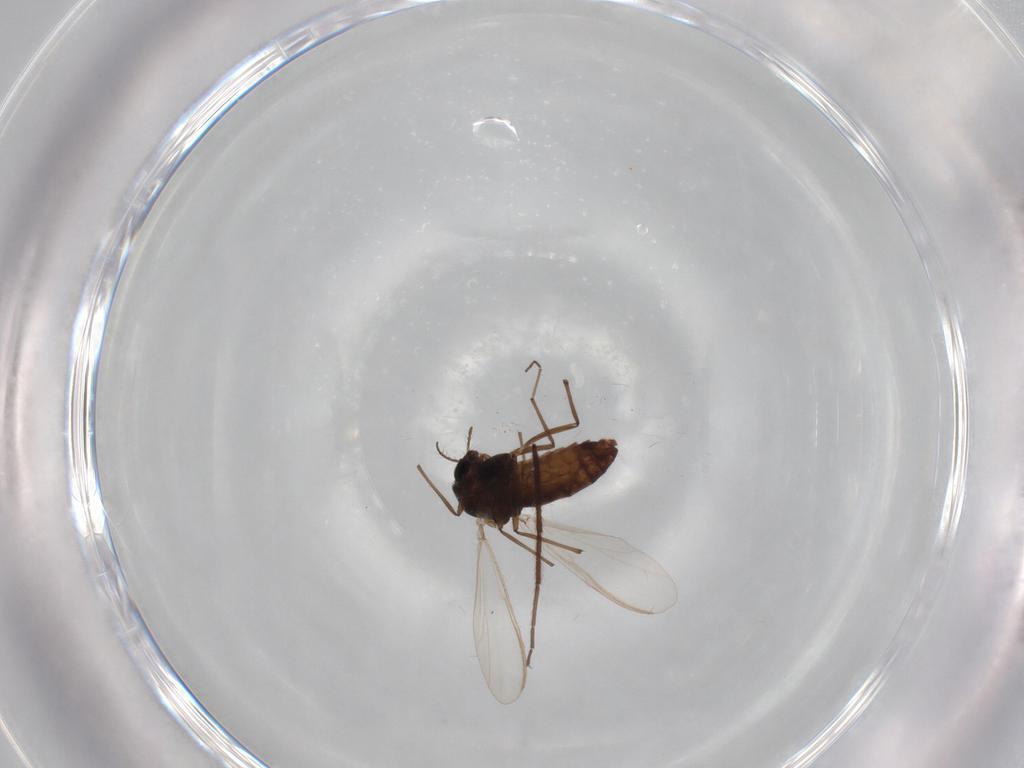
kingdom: Animalia
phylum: Arthropoda
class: Insecta
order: Diptera
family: Chironomidae
